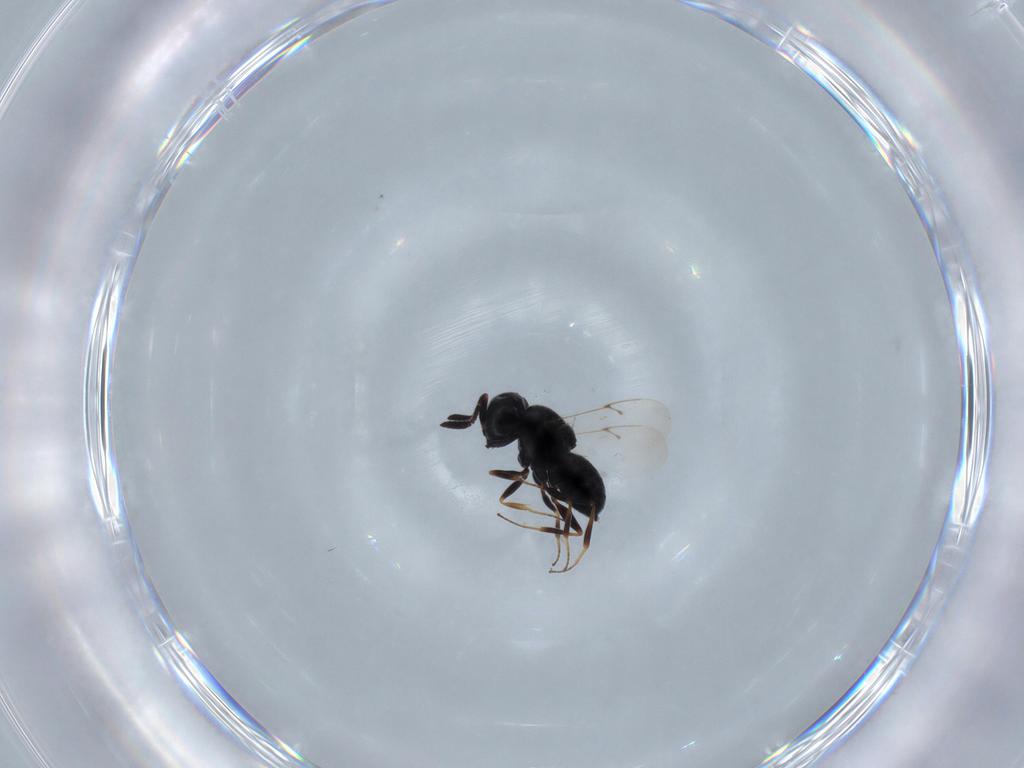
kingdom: Animalia
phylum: Arthropoda
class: Insecta
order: Hymenoptera
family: Scelionidae
